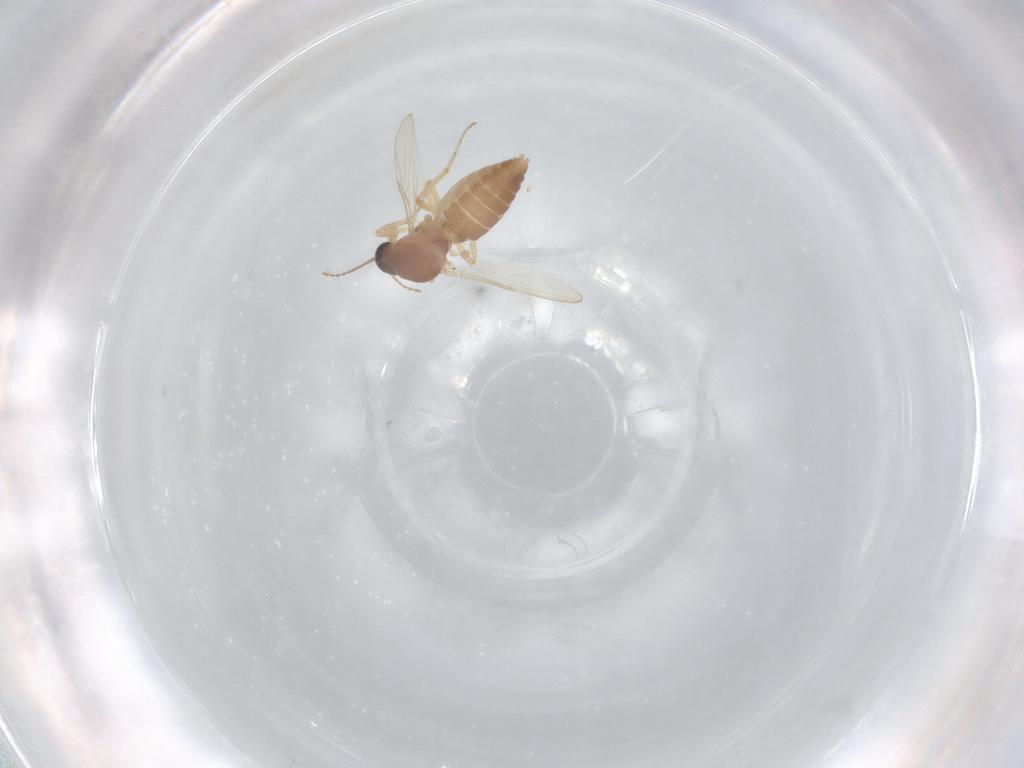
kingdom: Animalia
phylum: Arthropoda
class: Insecta
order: Diptera
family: Ceratopogonidae
